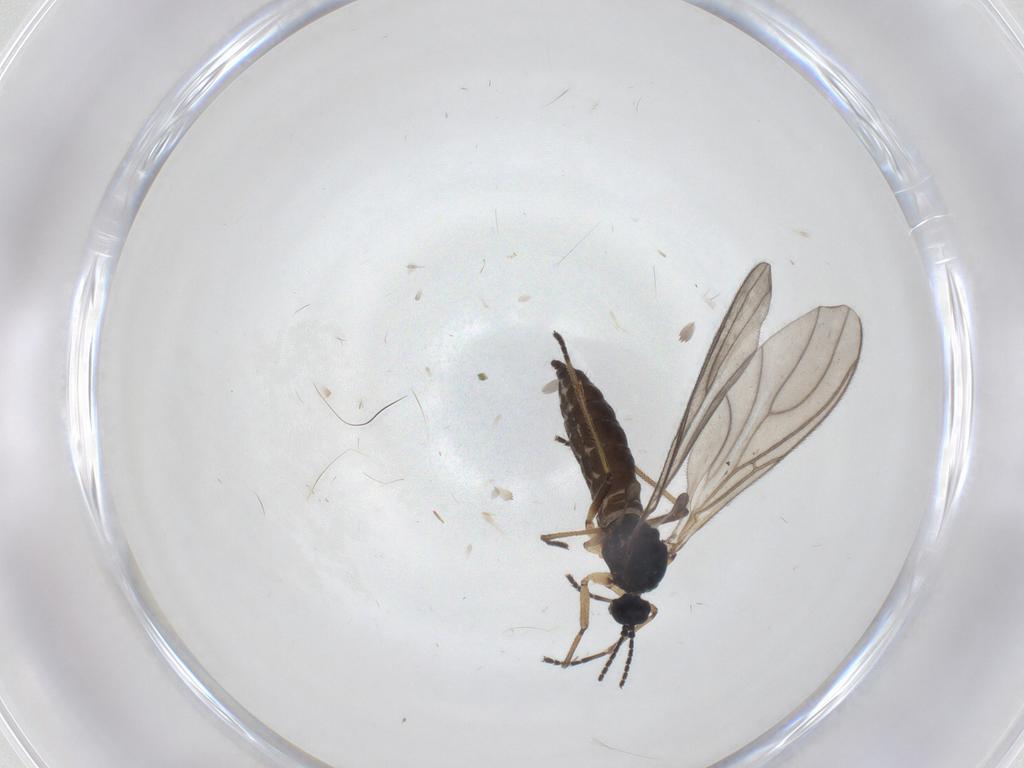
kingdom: Animalia
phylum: Arthropoda
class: Insecta
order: Diptera
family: Sciaridae
